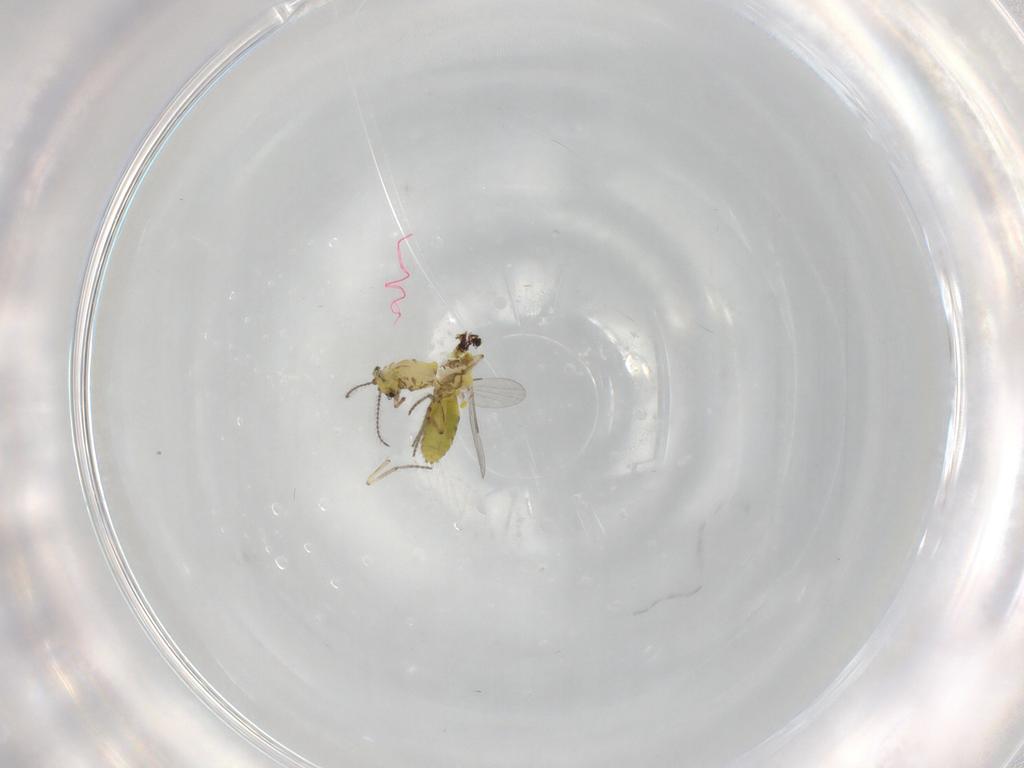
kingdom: Animalia
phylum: Arthropoda
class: Insecta
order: Diptera
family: Ceratopogonidae
